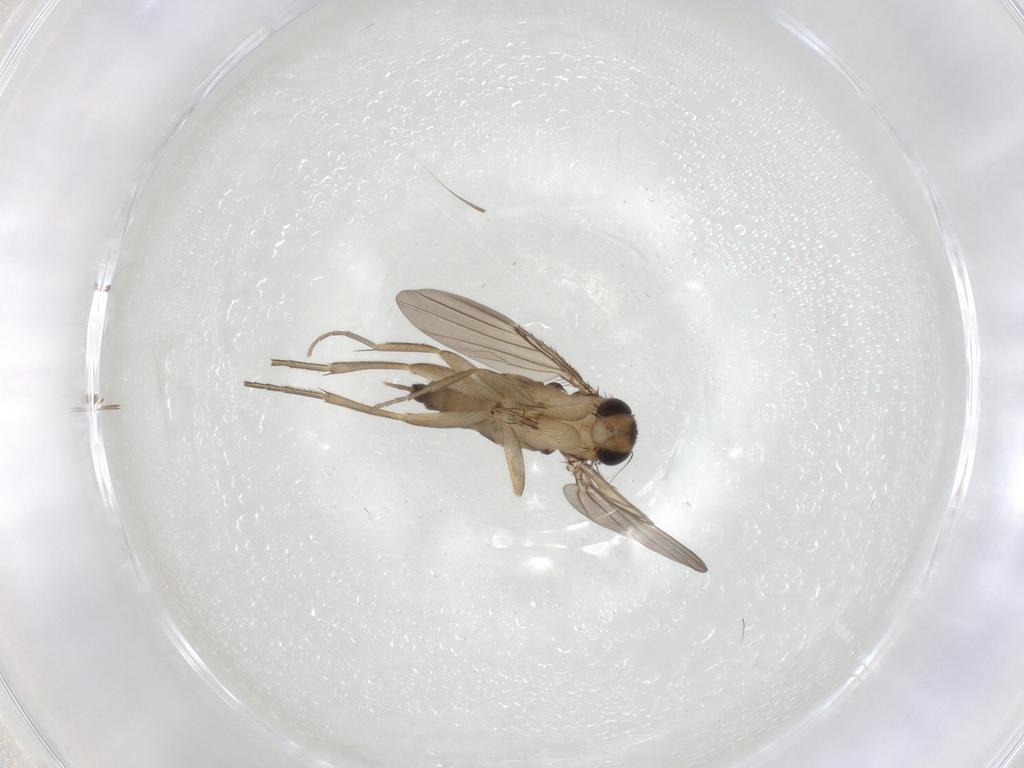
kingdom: Animalia
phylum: Arthropoda
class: Insecta
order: Diptera
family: Phoridae
